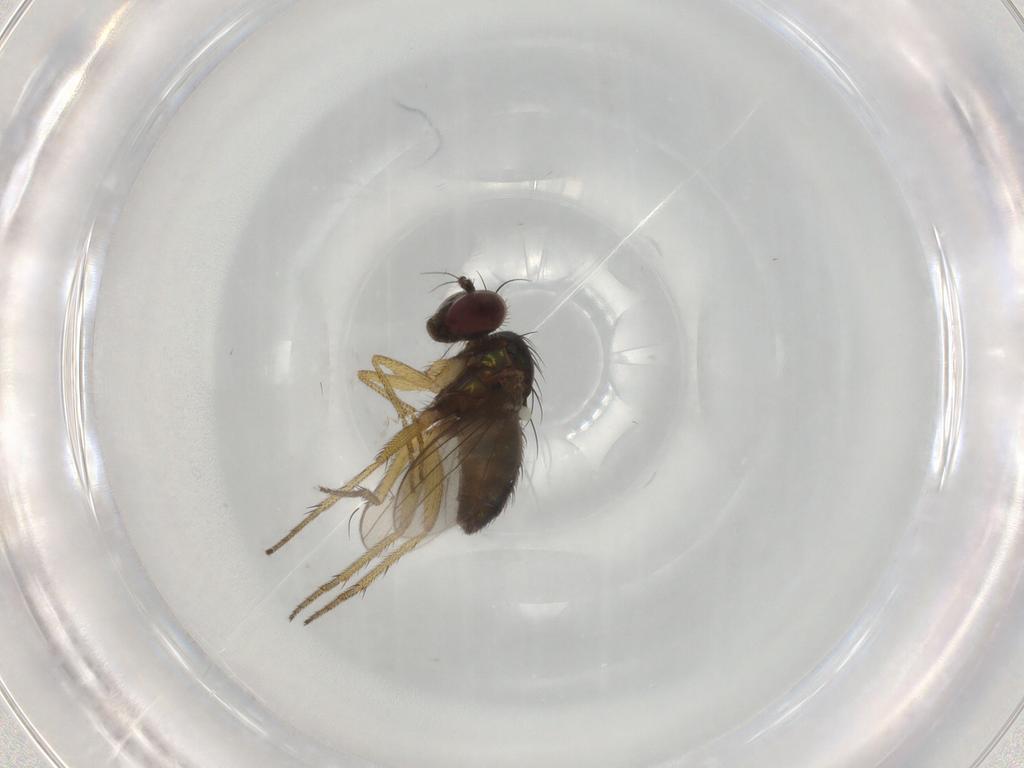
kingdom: Animalia
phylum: Arthropoda
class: Insecta
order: Diptera
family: Dolichopodidae
